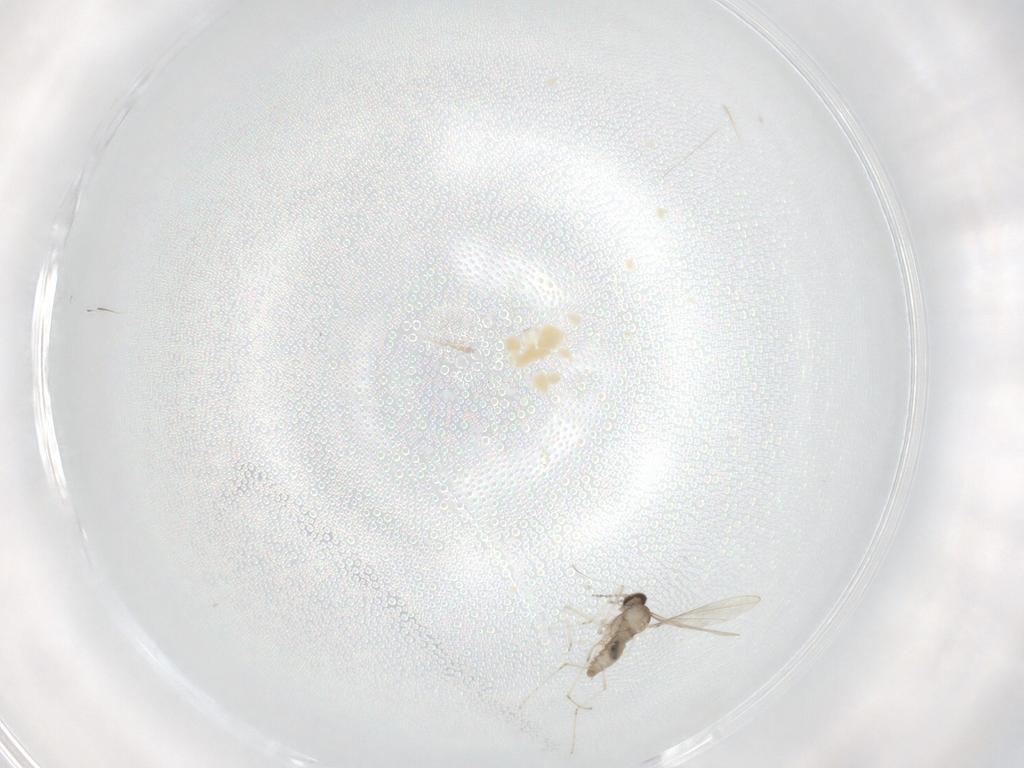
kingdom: Animalia
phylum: Arthropoda
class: Insecta
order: Diptera
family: Cecidomyiidae
